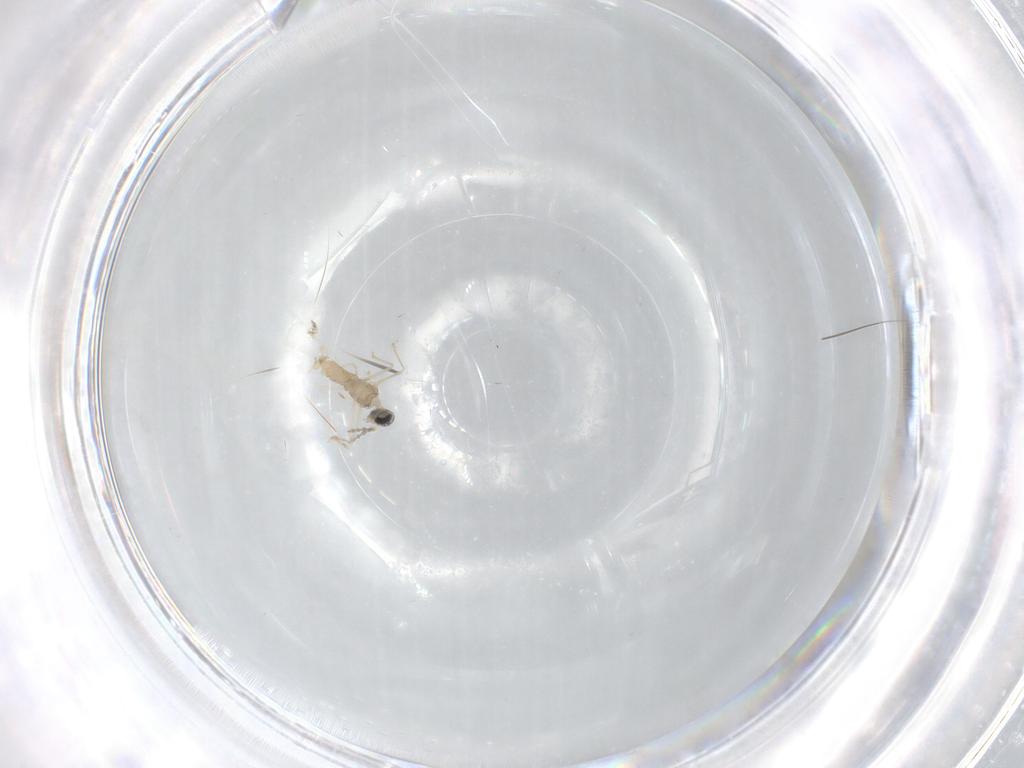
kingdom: Animalia
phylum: Arthropoda
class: Insecta
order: Diptera
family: Cecidomyiidae
